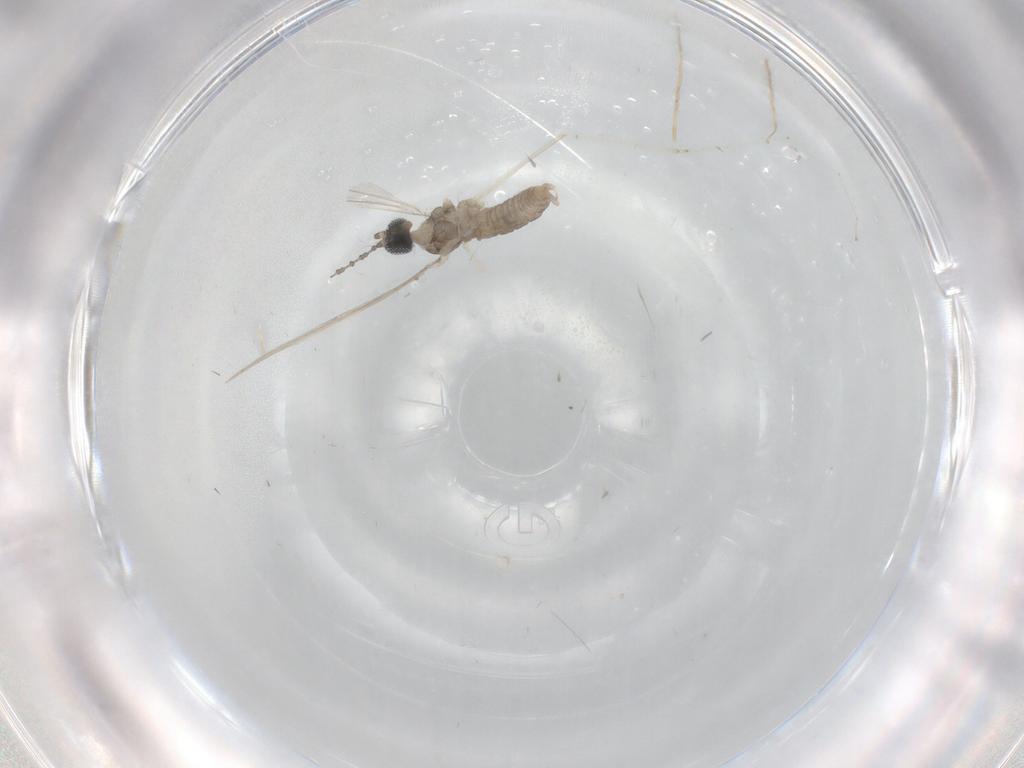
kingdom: Animalia
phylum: Arthropoda
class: Insecta
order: Diptera
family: Cecidomyiidae
